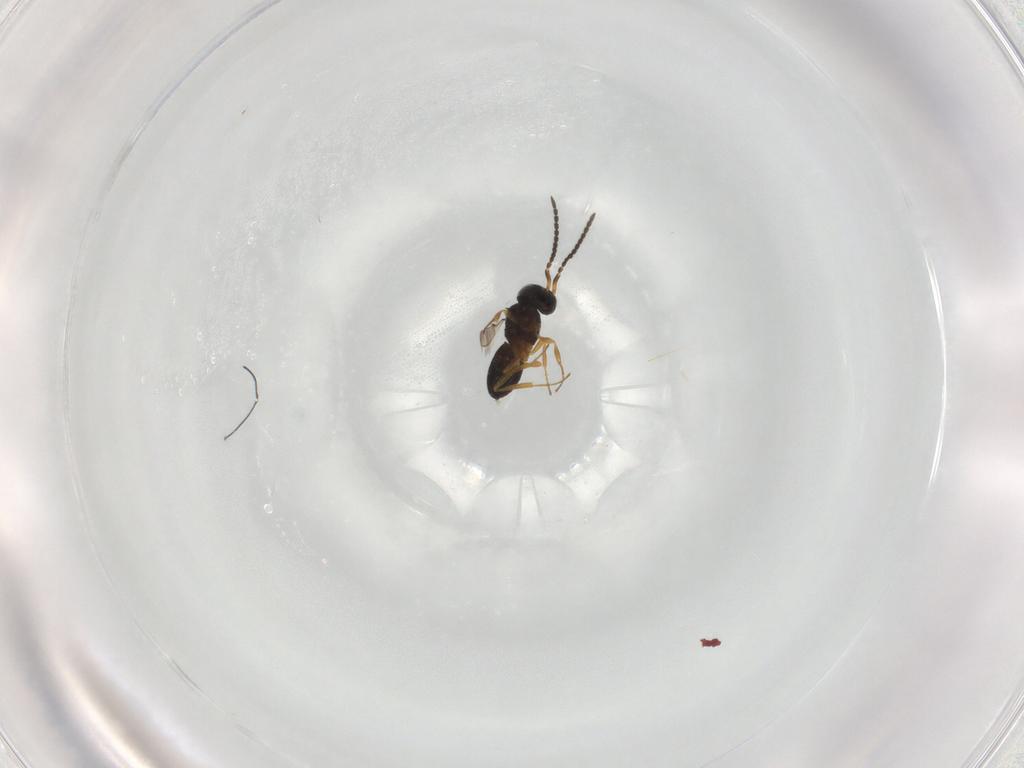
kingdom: Animalia
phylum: Arthropoda
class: Insecta
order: Hymenoptera
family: Scelionidae
